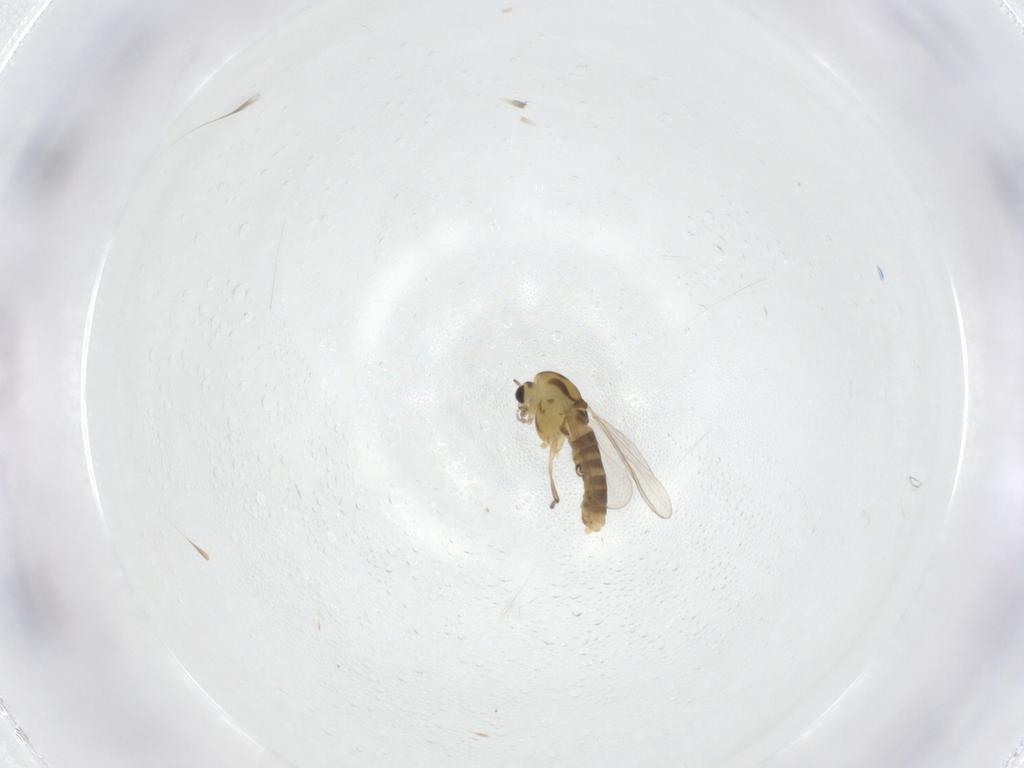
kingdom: Animalia
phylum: Arthropoda
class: Insecta
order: Diptera
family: Chironomidae
